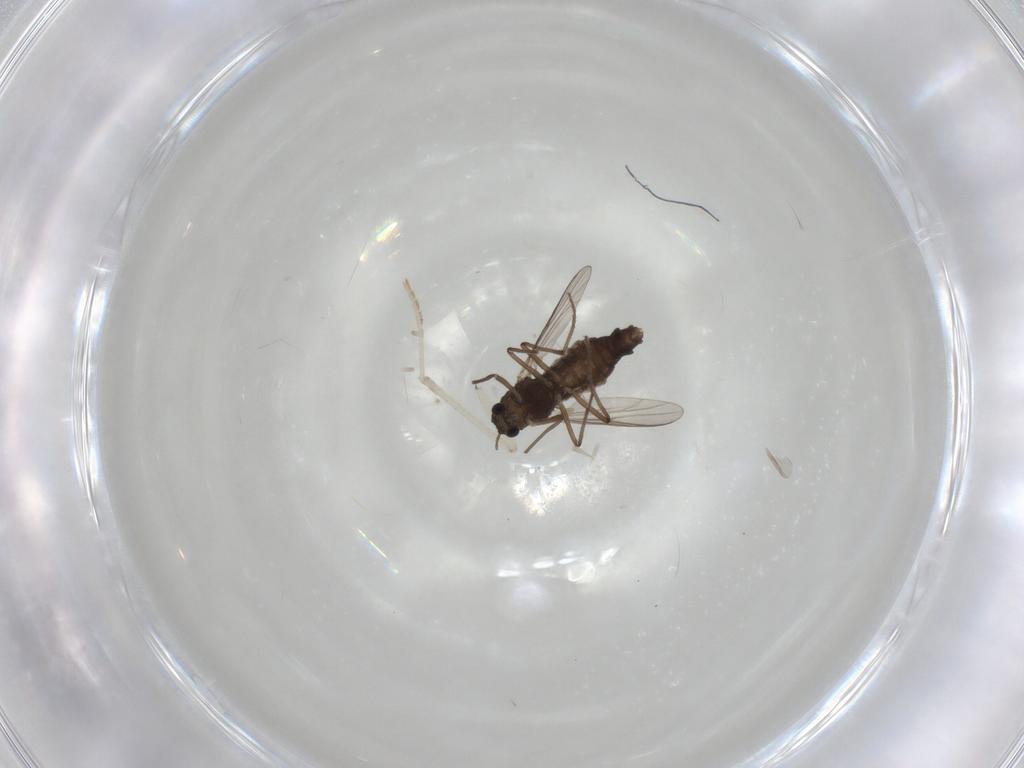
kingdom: Animalia
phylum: Arthropoda
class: Insecta
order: Diptera
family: Chironomidae
